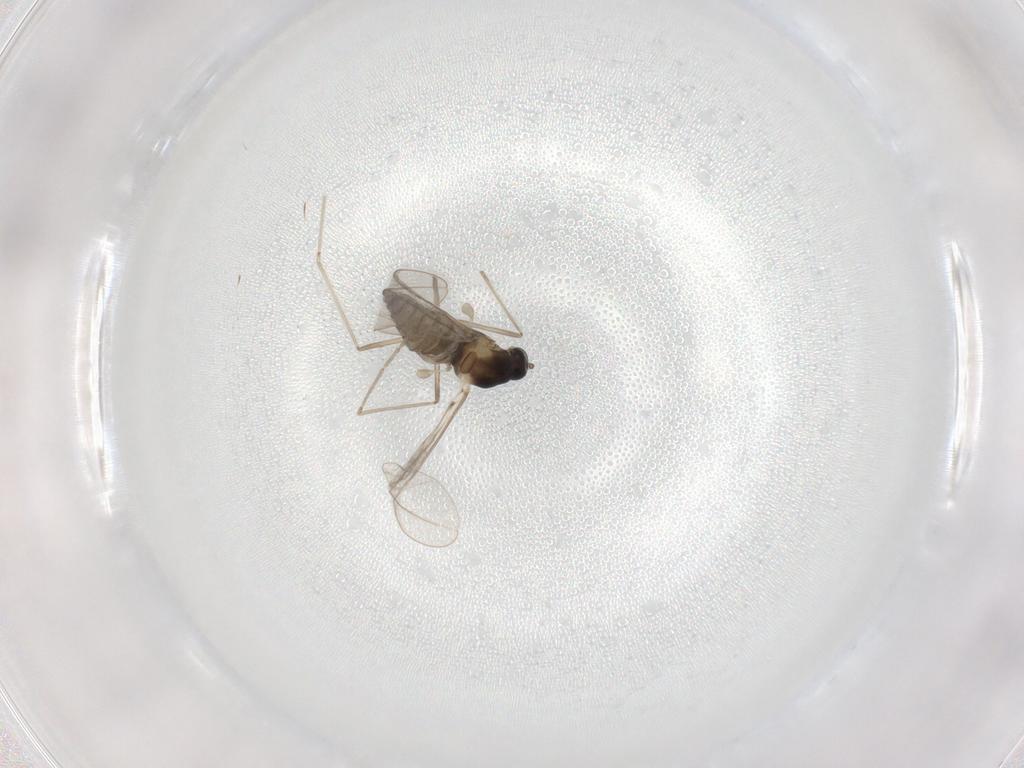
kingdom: Animalia
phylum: Arthropoda
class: Insecta
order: Diptera
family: Cecidomyiidae
